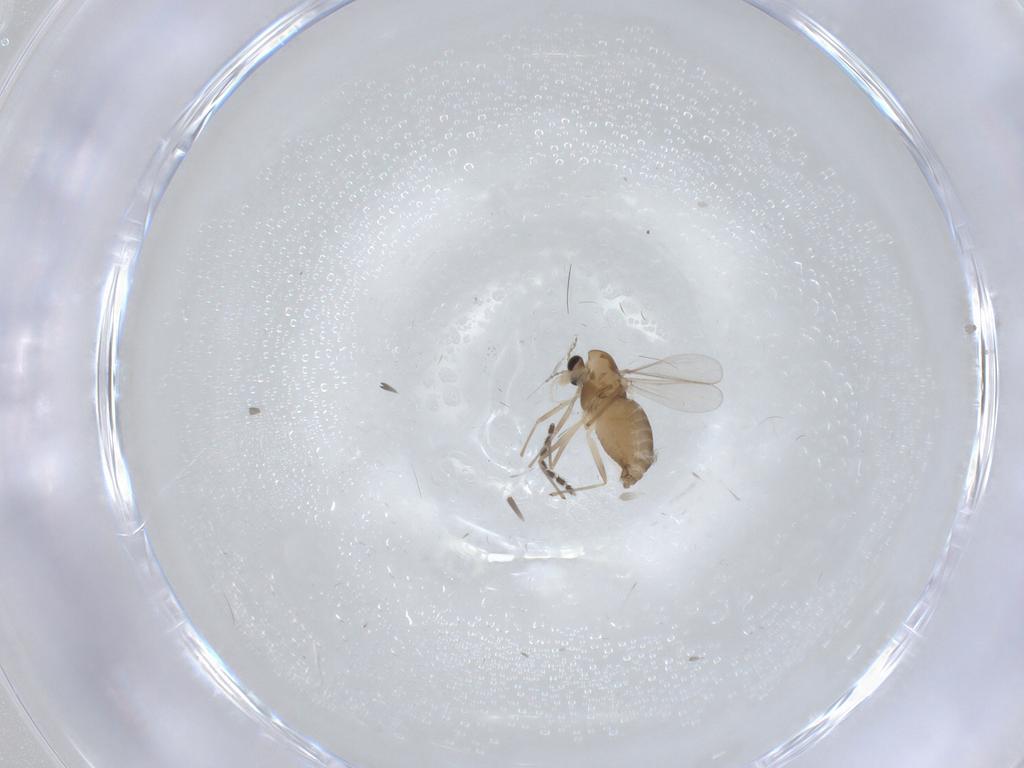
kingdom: Animalia
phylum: Arthropoda
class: Insecta
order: Diptera
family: Chironomidae
